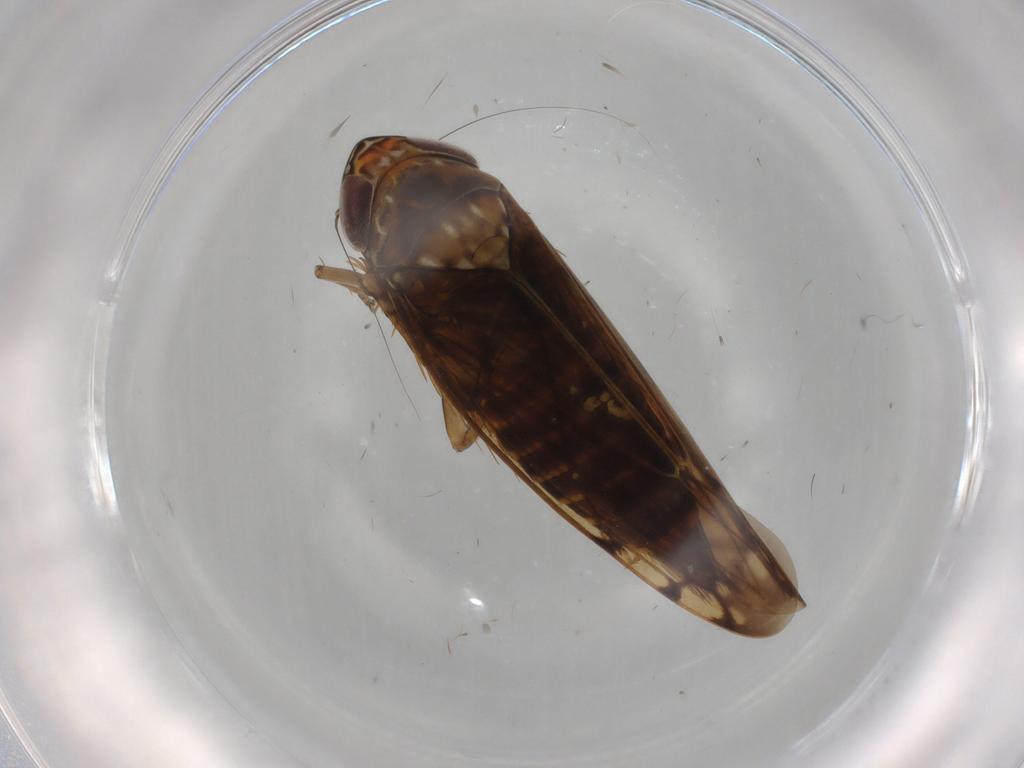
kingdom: Animalia
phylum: Arthropoda
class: Insecta
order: Hemiptera
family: Cicadellidae
